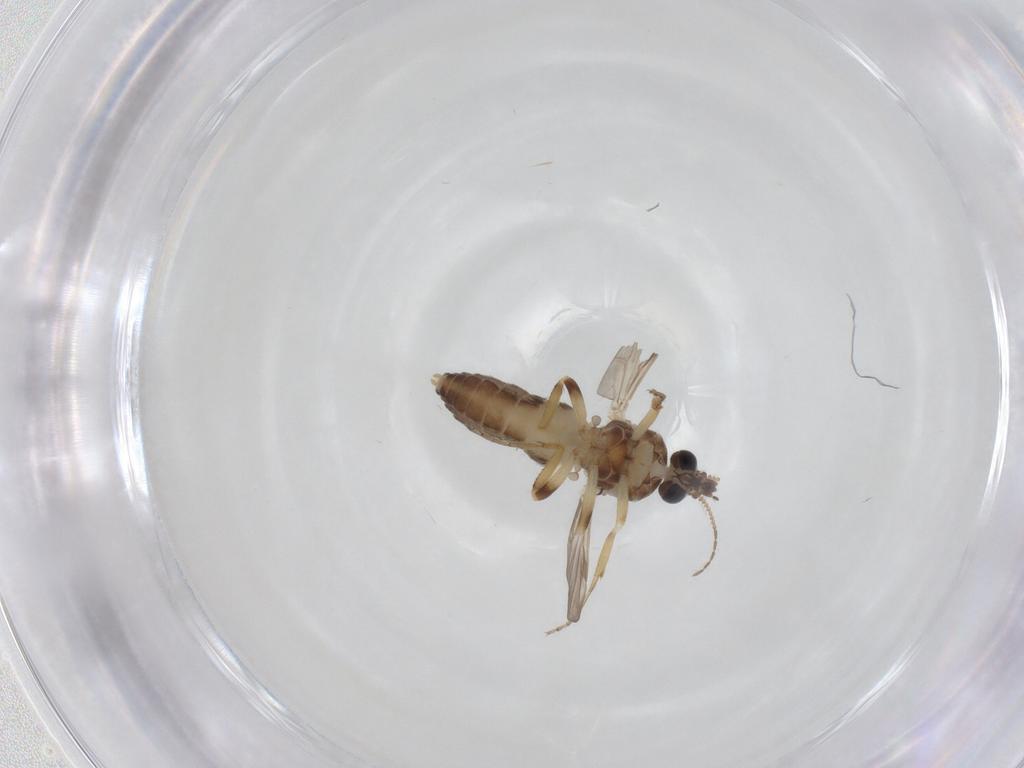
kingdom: Animalia
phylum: Arthropoda
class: Insecta
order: Diptera
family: Ceratopogonidae
